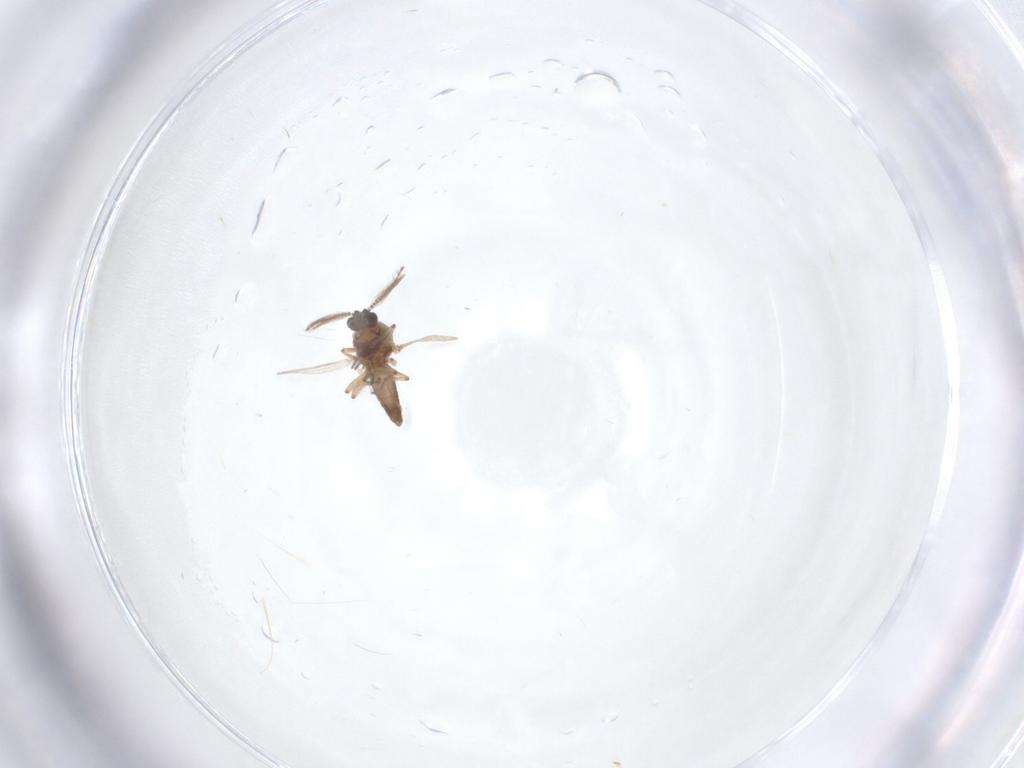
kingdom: Animalia
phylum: Arthropoda
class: Insecta
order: Diptera
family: Ceratopogonidae
